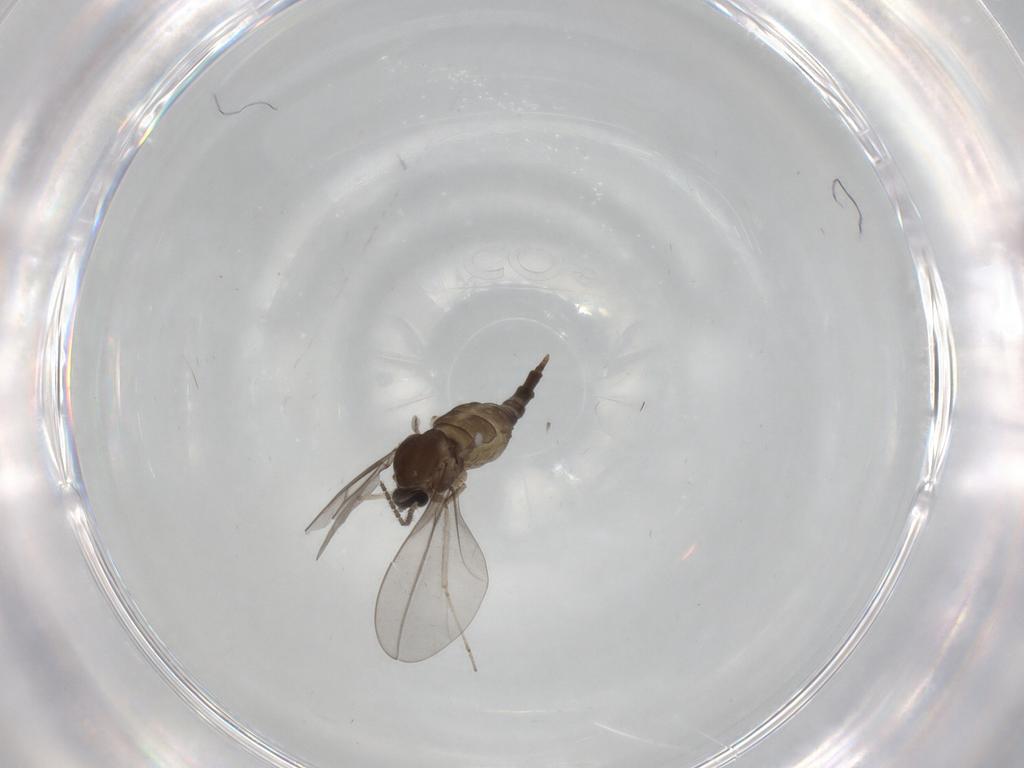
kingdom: Animalia
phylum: Arthropoda
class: Insecta
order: Diptera
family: Cecidomyiidae
